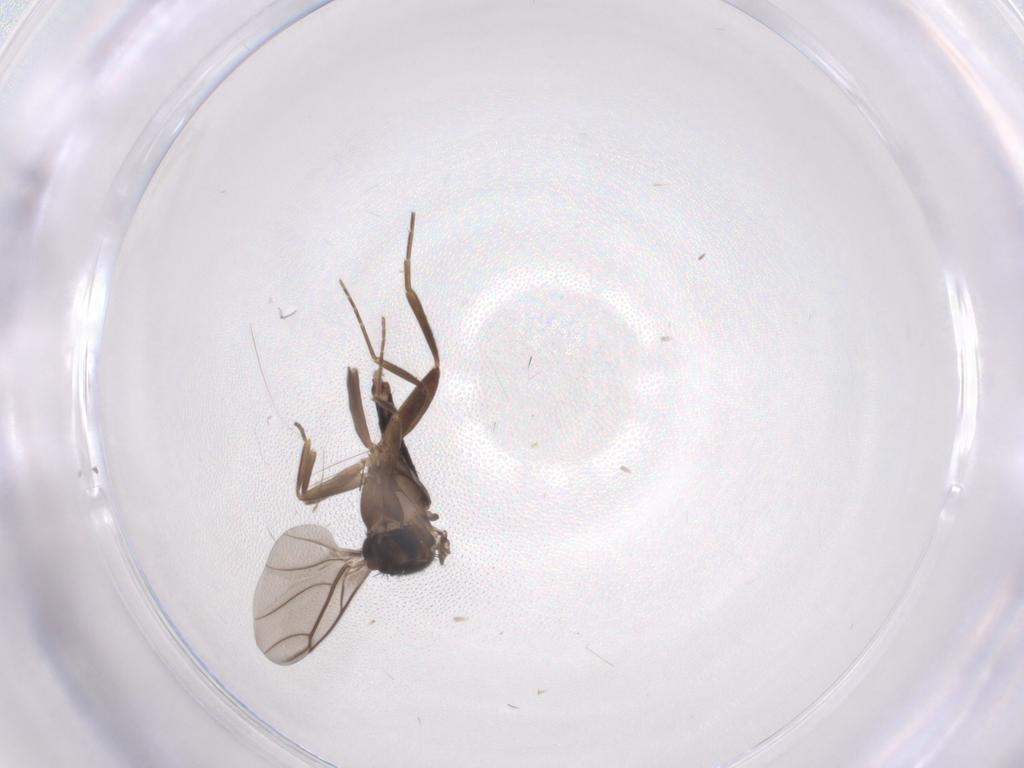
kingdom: Animalia
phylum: Arthropoda
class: Insecta
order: Diptera
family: Phoridae
